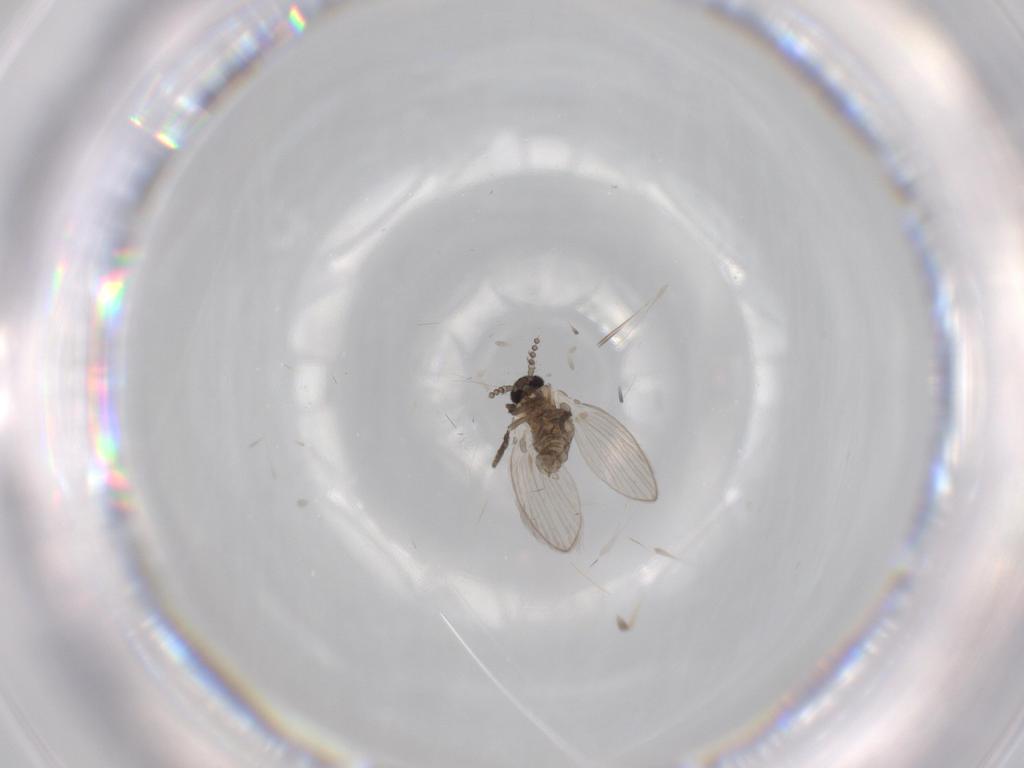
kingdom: Animalia
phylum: Arthropoda
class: Insecta
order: Diptera
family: Psychodidae
